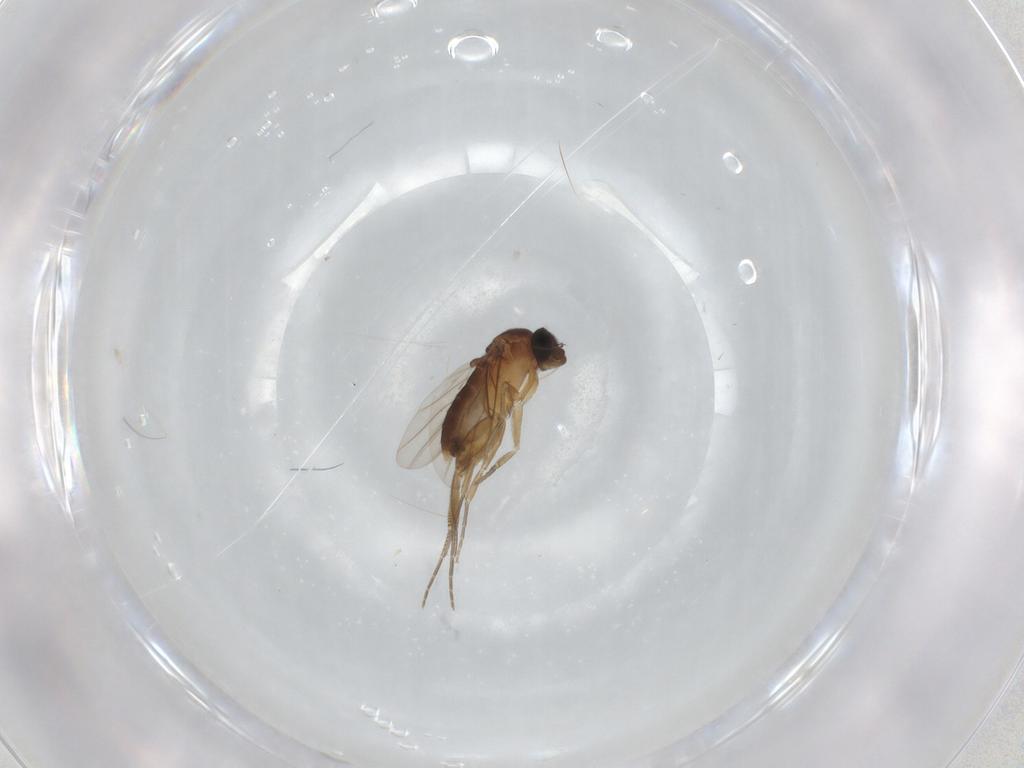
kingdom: Animalia
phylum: Arthropoda
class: Insecta
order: Diptera
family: Phoridae
